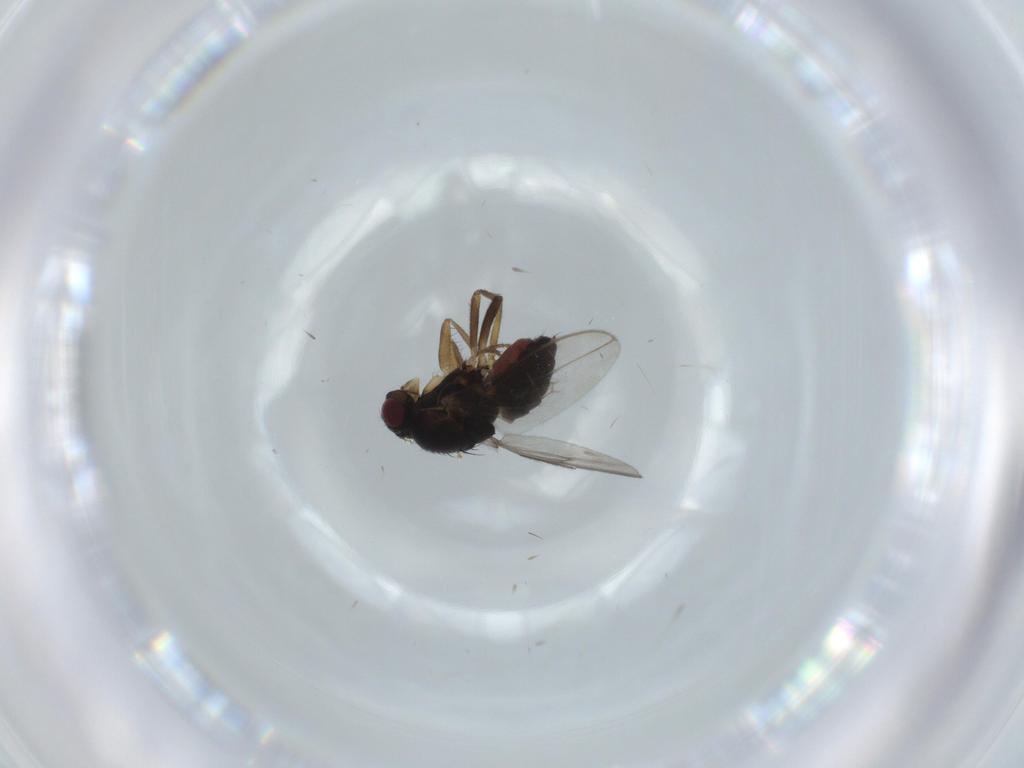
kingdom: Animalia
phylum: Arthropoda
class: Insecta
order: Diptera
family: Sphaeroceridae
